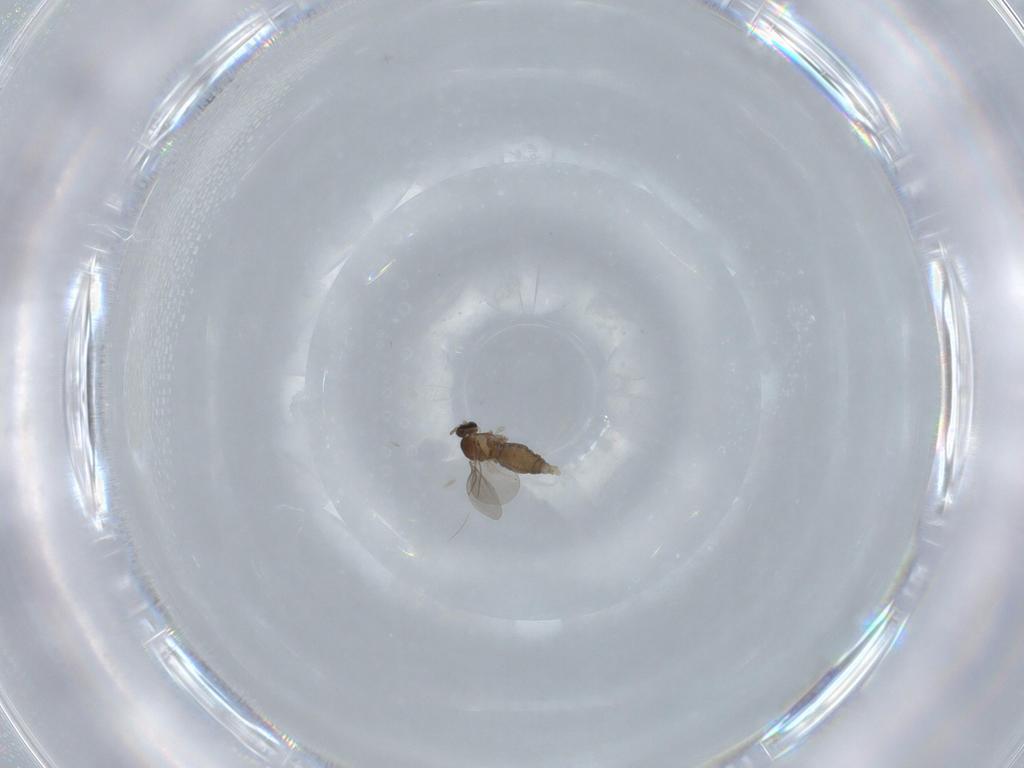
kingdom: Animalia
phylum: Arthropoda
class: Insecta
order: Diptera
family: Cecidomyiidae
